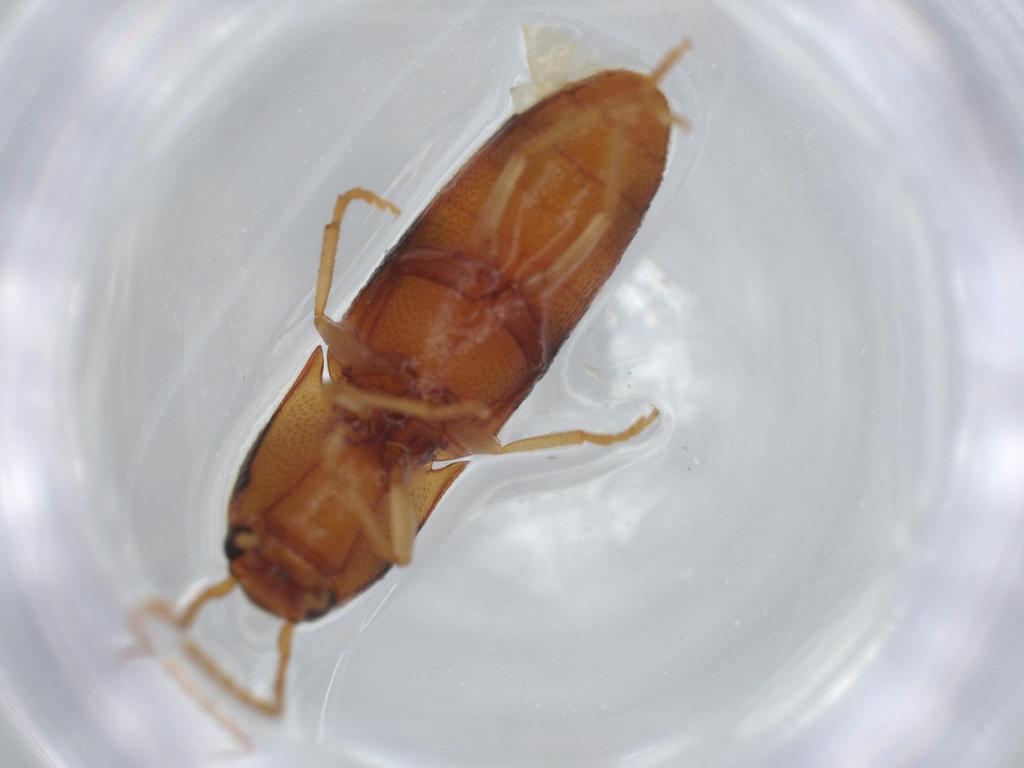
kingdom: Animalia
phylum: Arthropoda
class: Insecta
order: Coleoptera
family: Elateridae
